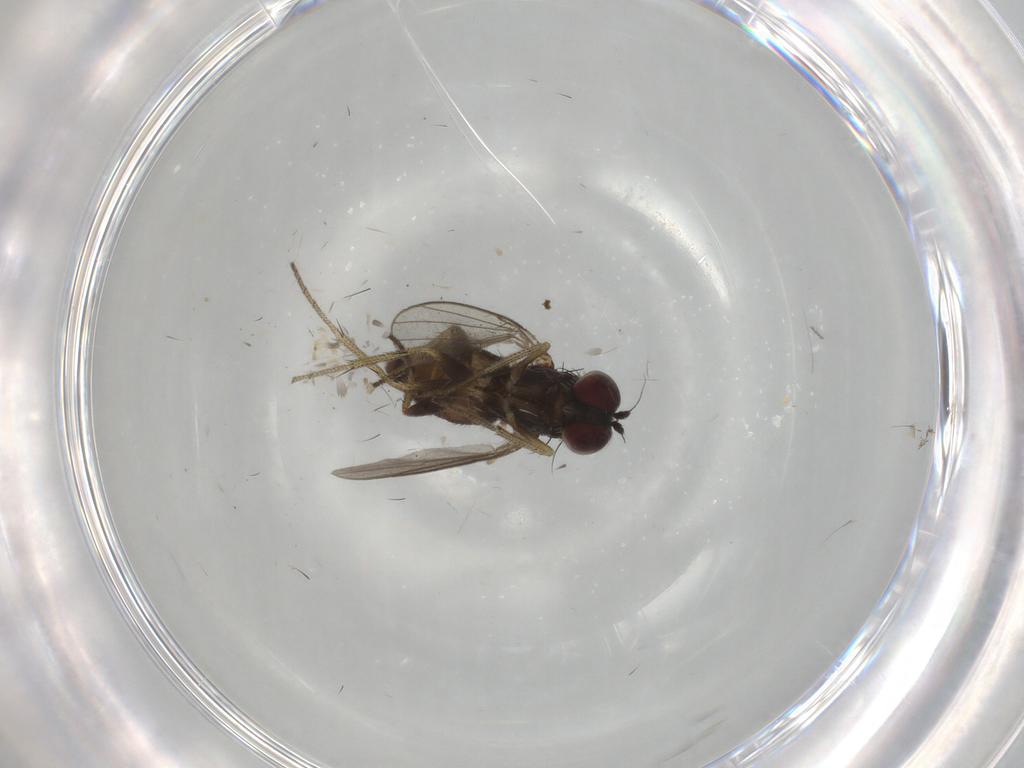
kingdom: Animalia
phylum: Arthropoda
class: Insecta
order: Diptera
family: Dolichopodidae
